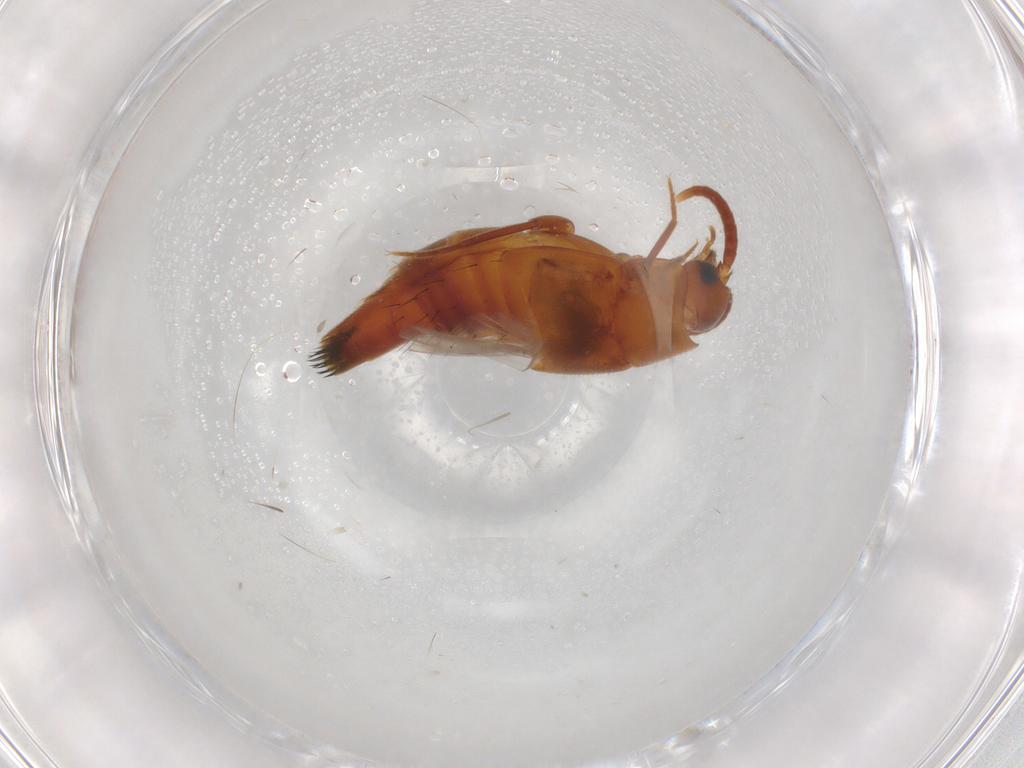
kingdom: Animalia
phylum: Arthropoda
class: Insecta
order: Coleoptera
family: Staphylinidae
